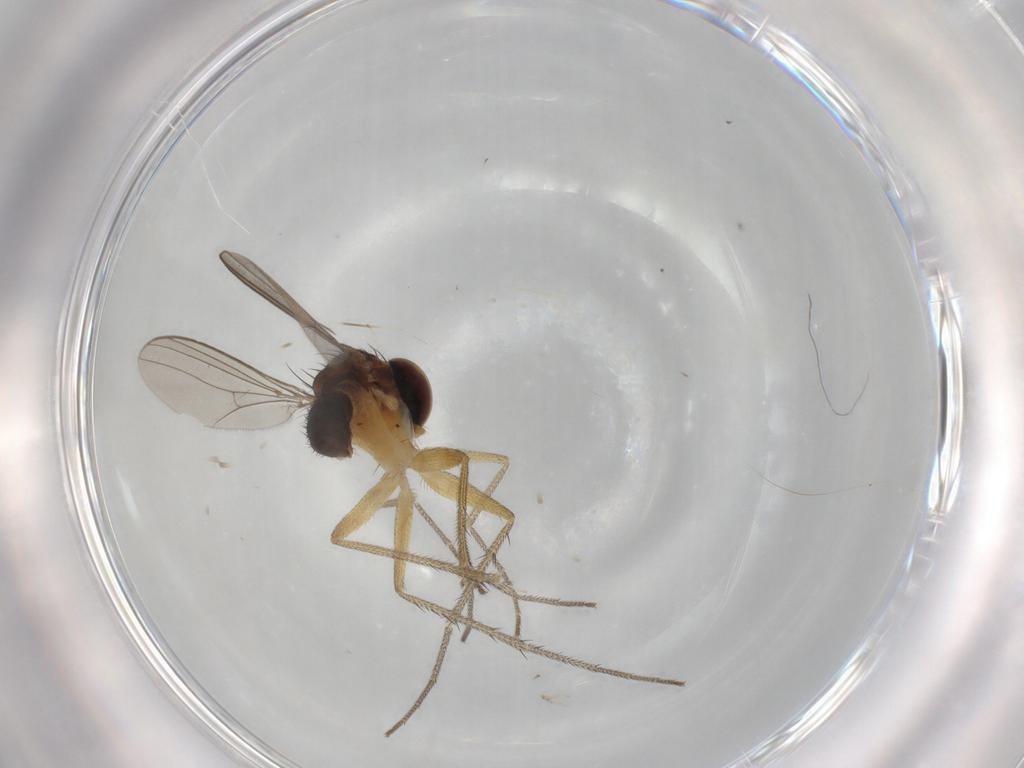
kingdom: Animalia
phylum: Arthropoda
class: Insecta
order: Diptera
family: Dolichopodidae
